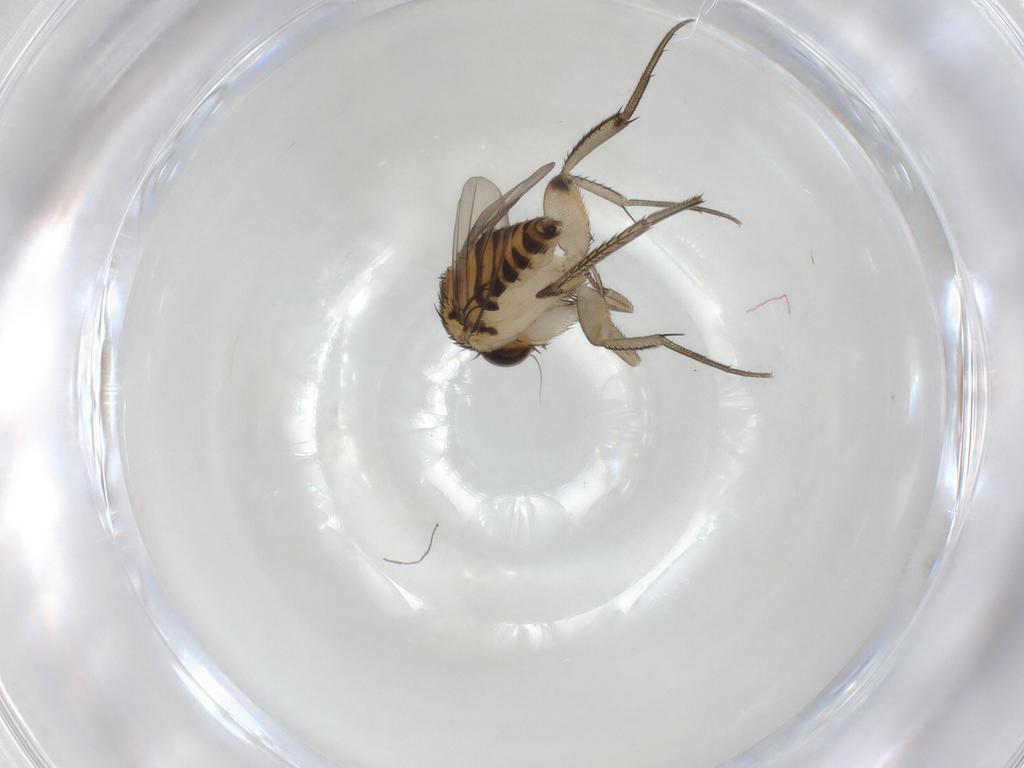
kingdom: Animalia
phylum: Arthropoda
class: Insecta
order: Diptera
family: Phoridae
